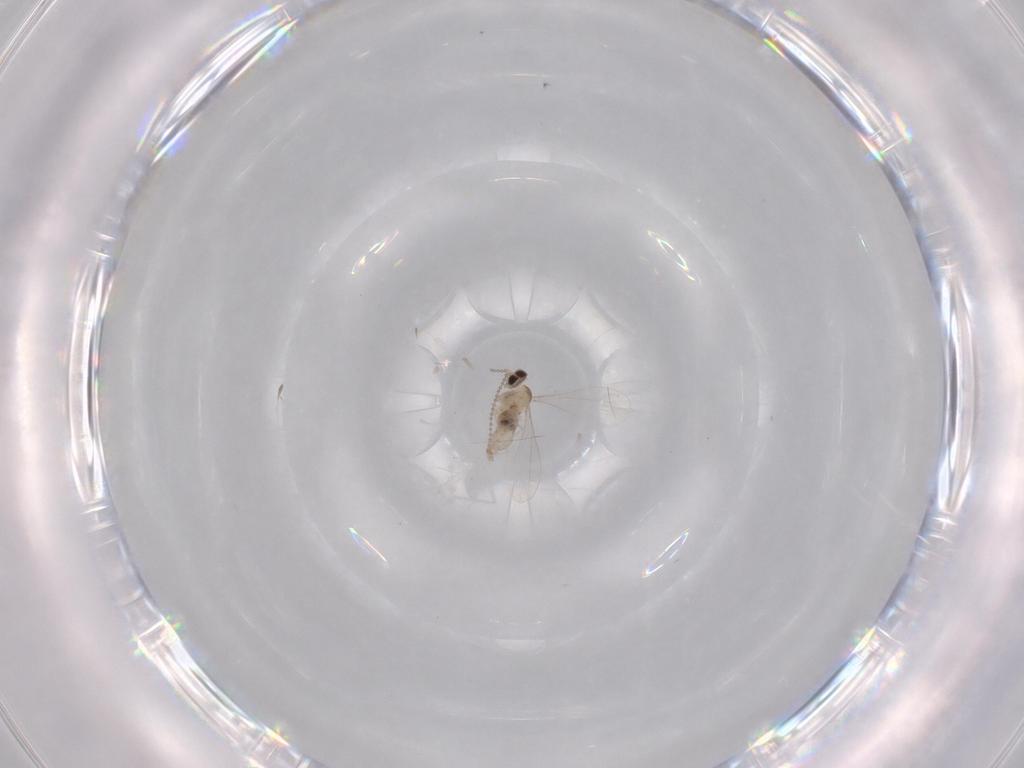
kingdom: Animalia
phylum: Arthropoda
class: Insecta
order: Diptera
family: Cecidomyiidae
